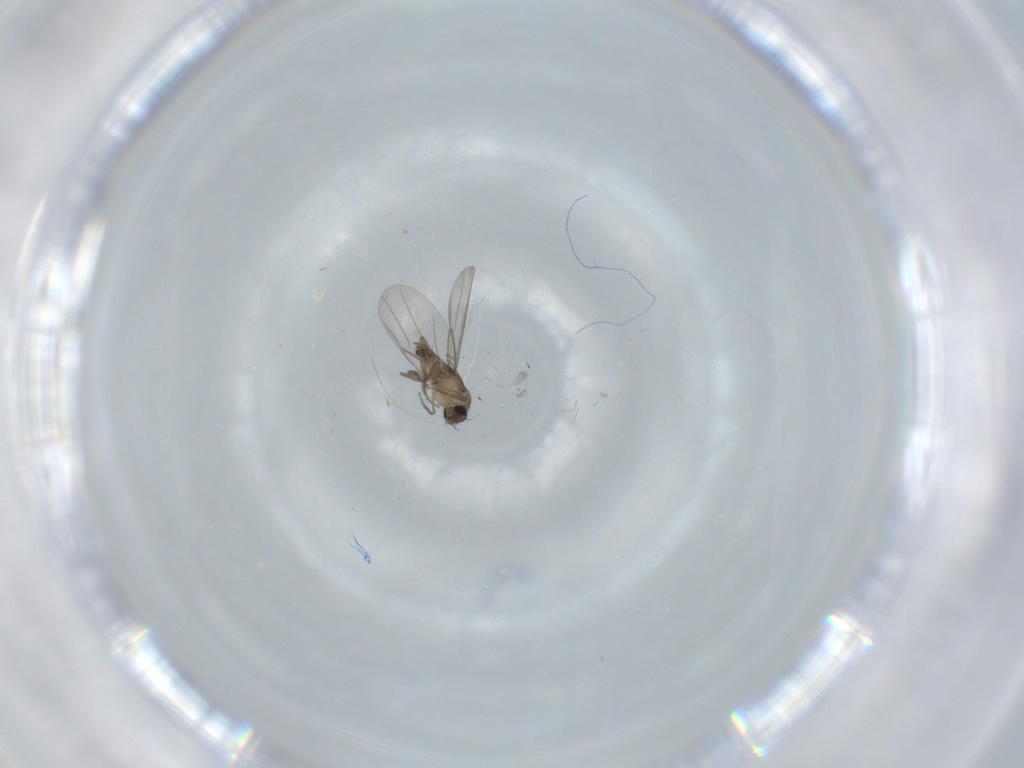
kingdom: Animalia
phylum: Arthropoda
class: Insecta
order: Diptera
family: Phoridae
